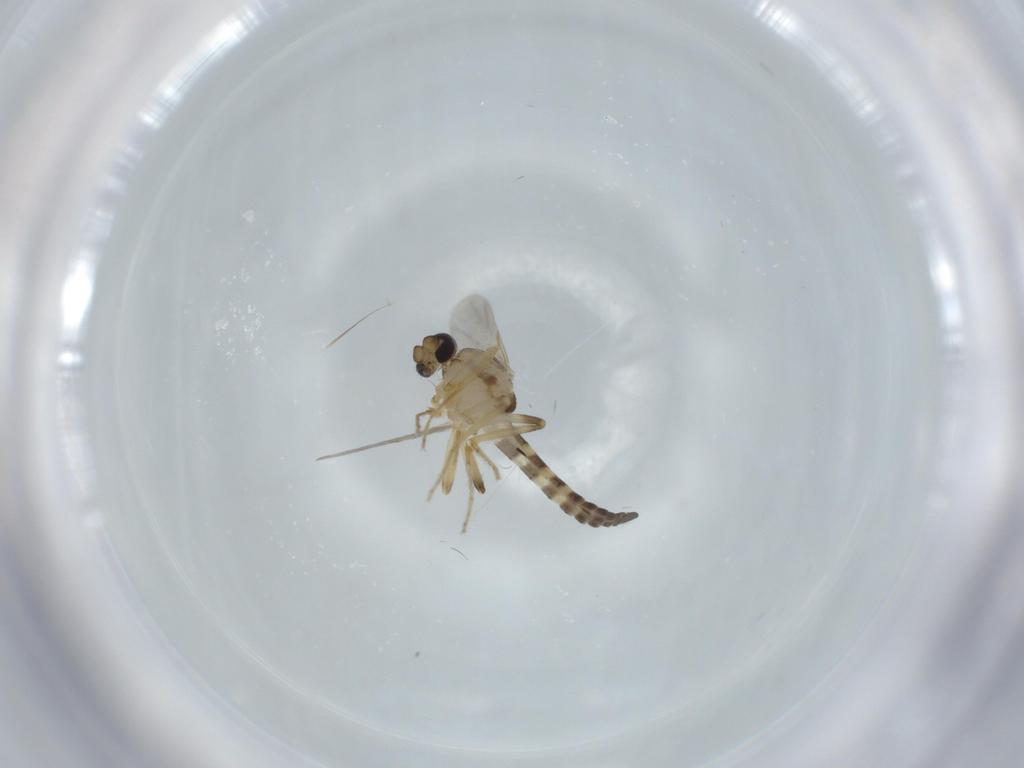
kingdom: Animalia
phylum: Arthropoda
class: Insecta
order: Diptera
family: Ceratopogonidae
